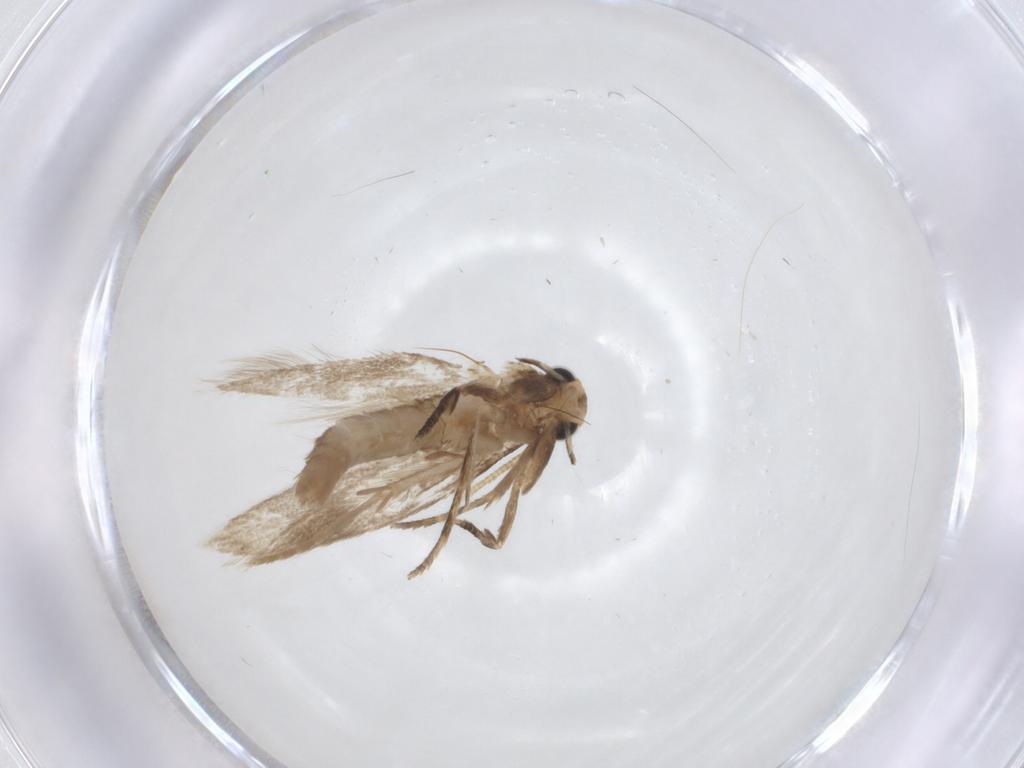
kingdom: Animalia
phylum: Arthropoda
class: Insecta
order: Lepidoptera
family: Tineidae
